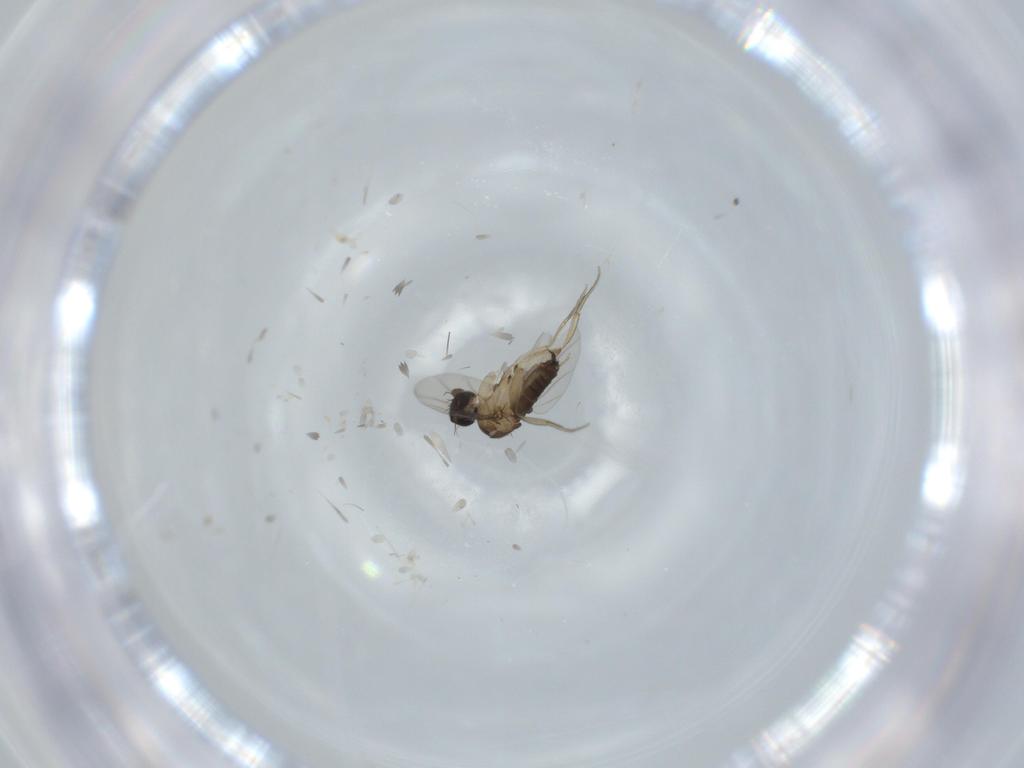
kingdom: Animalia
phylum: Arthropoda
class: Insecta
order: Diptera
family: Phoridae
